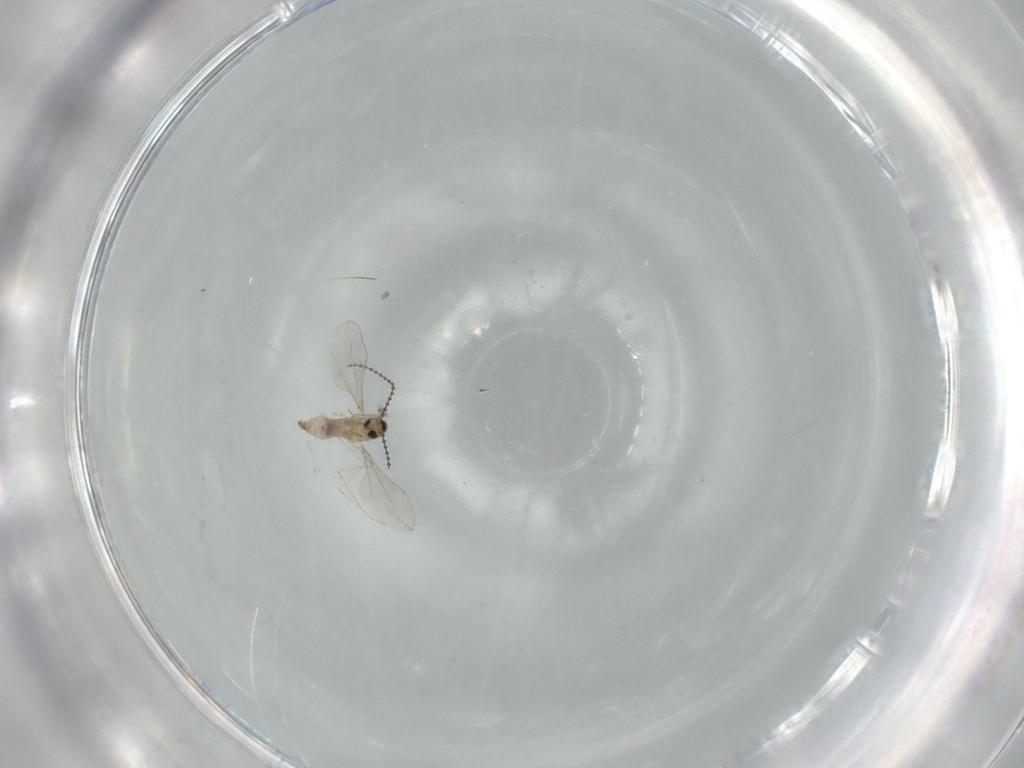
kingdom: Animalia
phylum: Arthropoda
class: Insecta
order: Diptera
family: Cecidomyiidae
